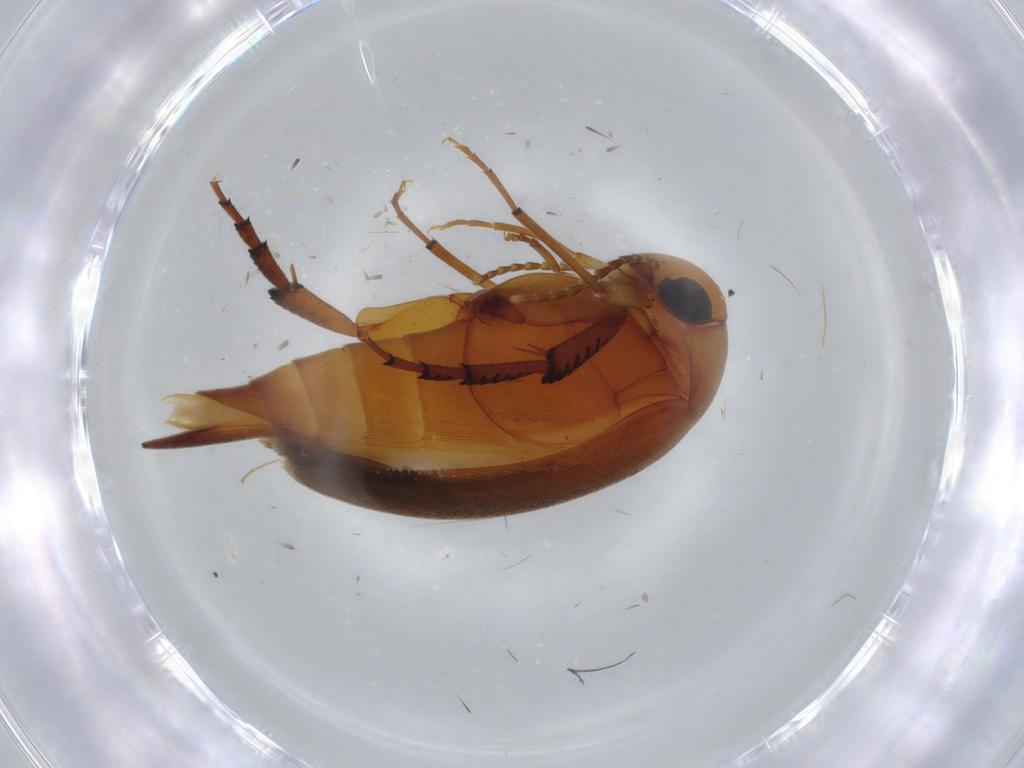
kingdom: Animalia
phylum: Arthropoda
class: Insecta
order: Coleoptera
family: Mordellidae
